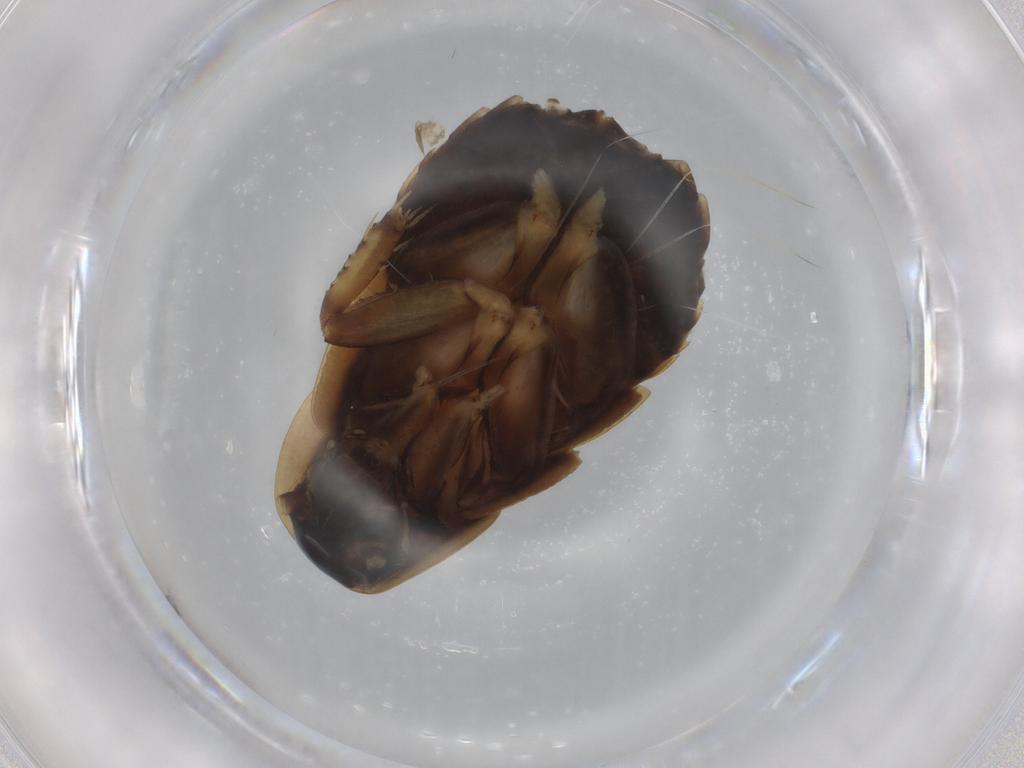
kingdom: Animalia
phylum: Arthropoda
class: Insecta
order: Blattodea
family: Ectobiidae
